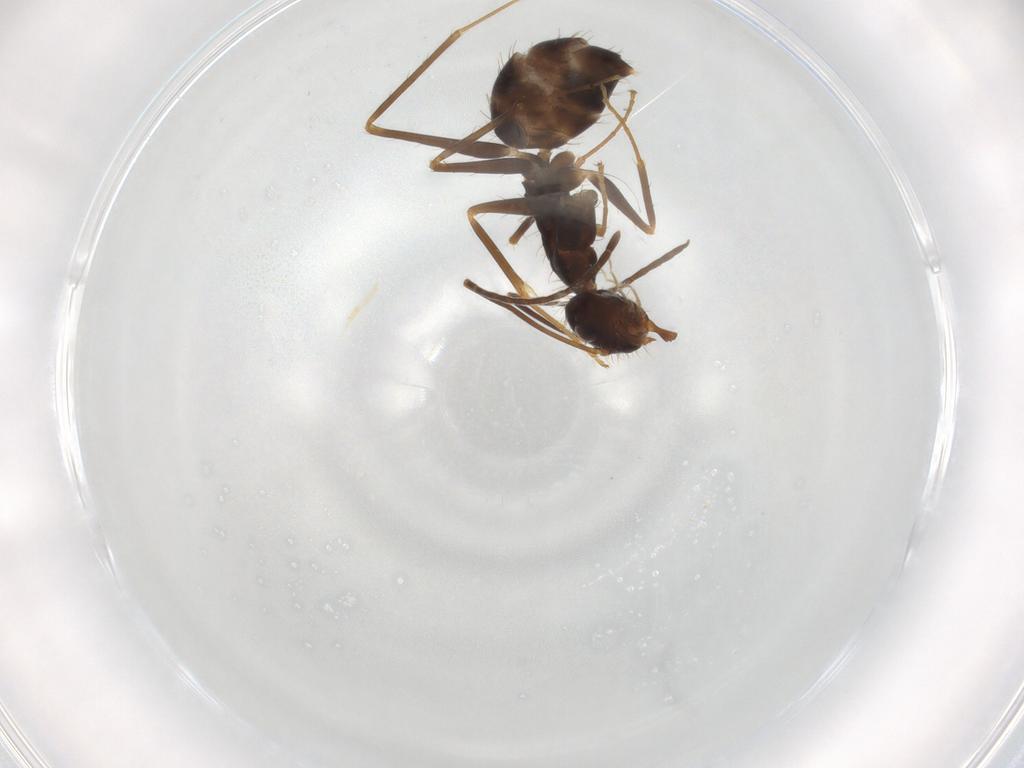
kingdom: Animalia
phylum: Arthropoda
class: Insecta
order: Hymenoptera
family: Formicidae
